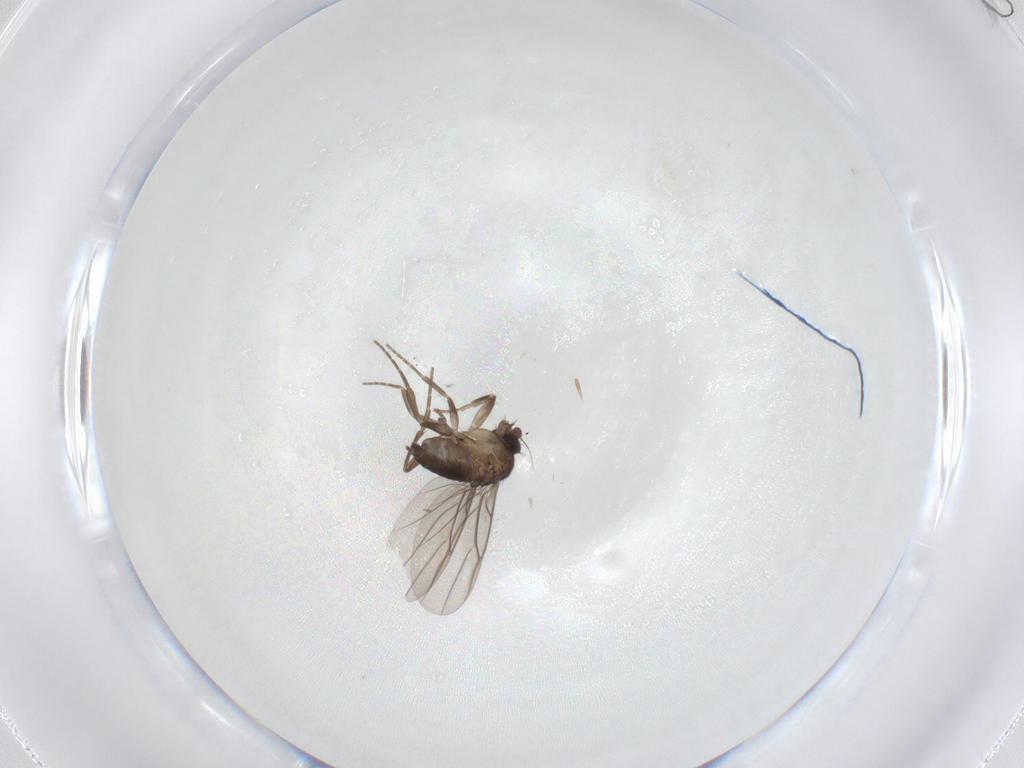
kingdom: Animalia
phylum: Arthropoda
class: Insecta
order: Diptera
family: Phoridae
